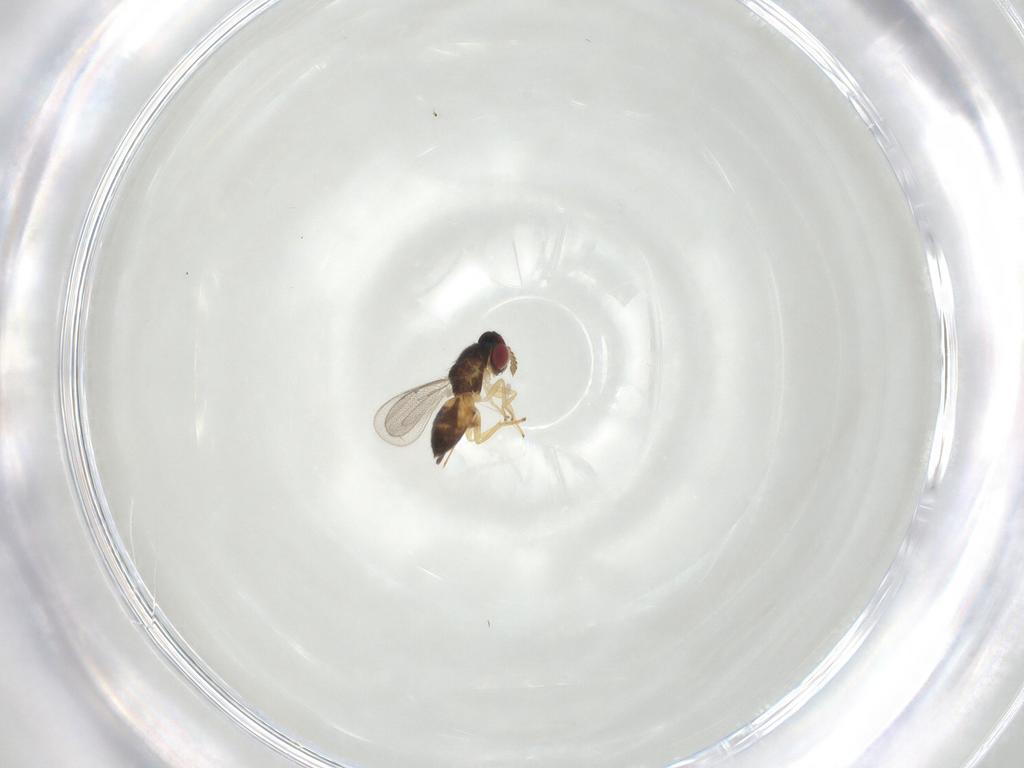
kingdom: Animalia
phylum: Arthropoda
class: Insecta
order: Hymenoptera
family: Eulophidae
